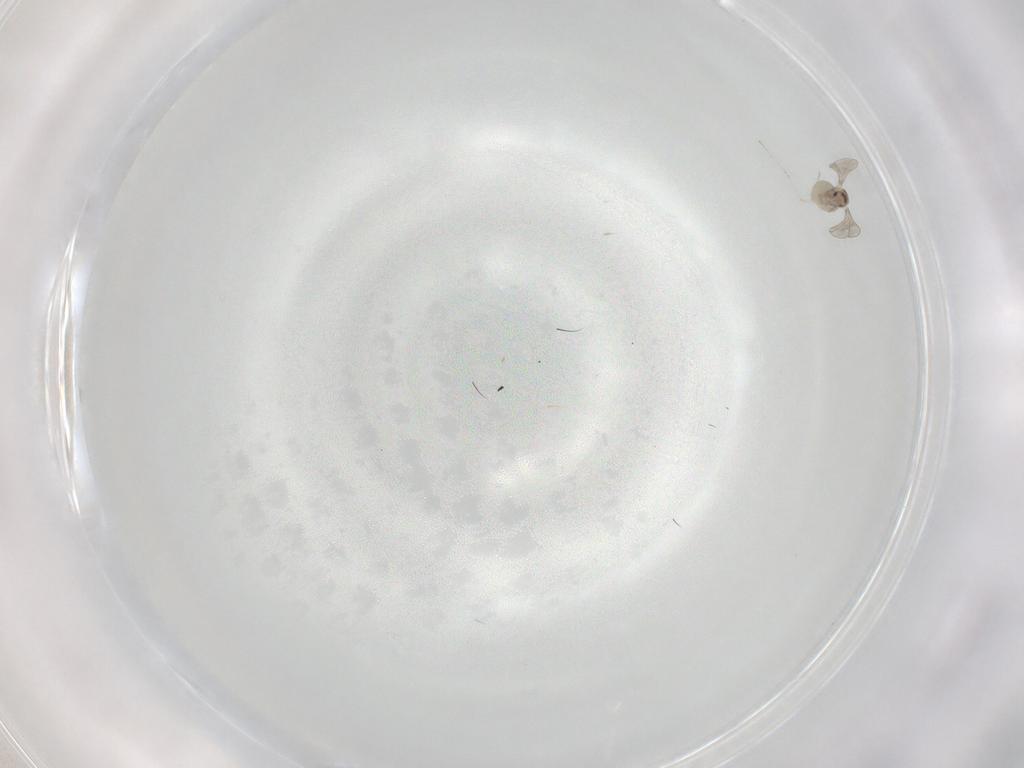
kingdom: Animalia
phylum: Arthropoda
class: Insecta
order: Diptera
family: Cecidomyiidae
